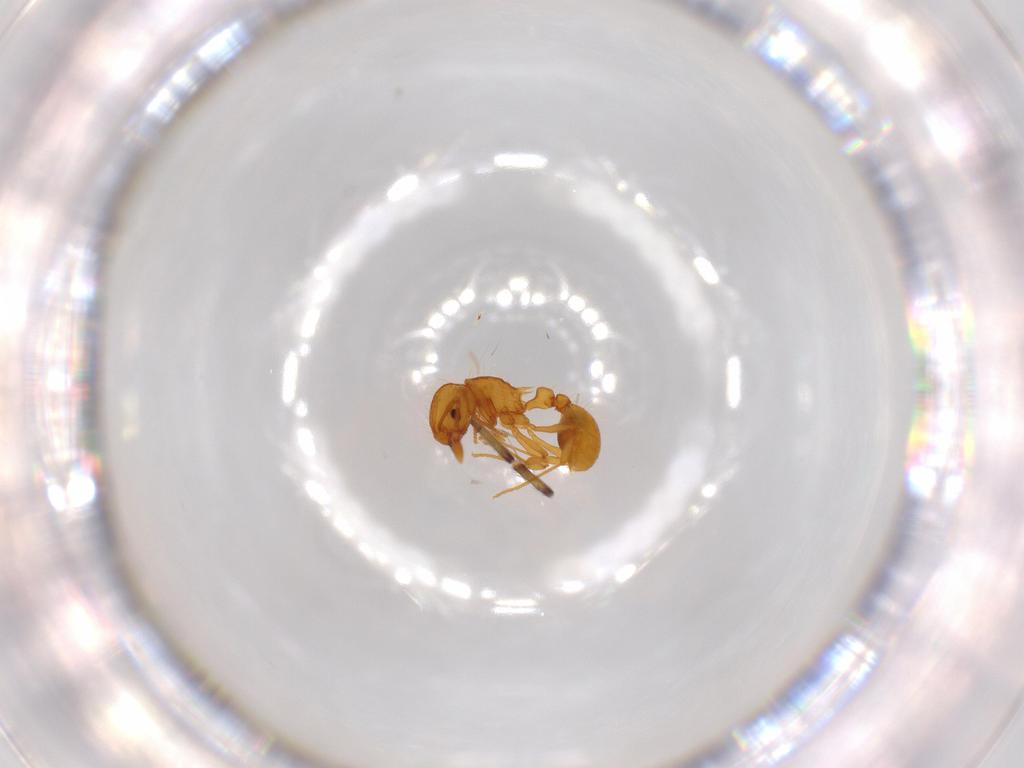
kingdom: Animalia
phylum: Arthropoda
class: Insecta
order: Hymenoptera
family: Formicidae
